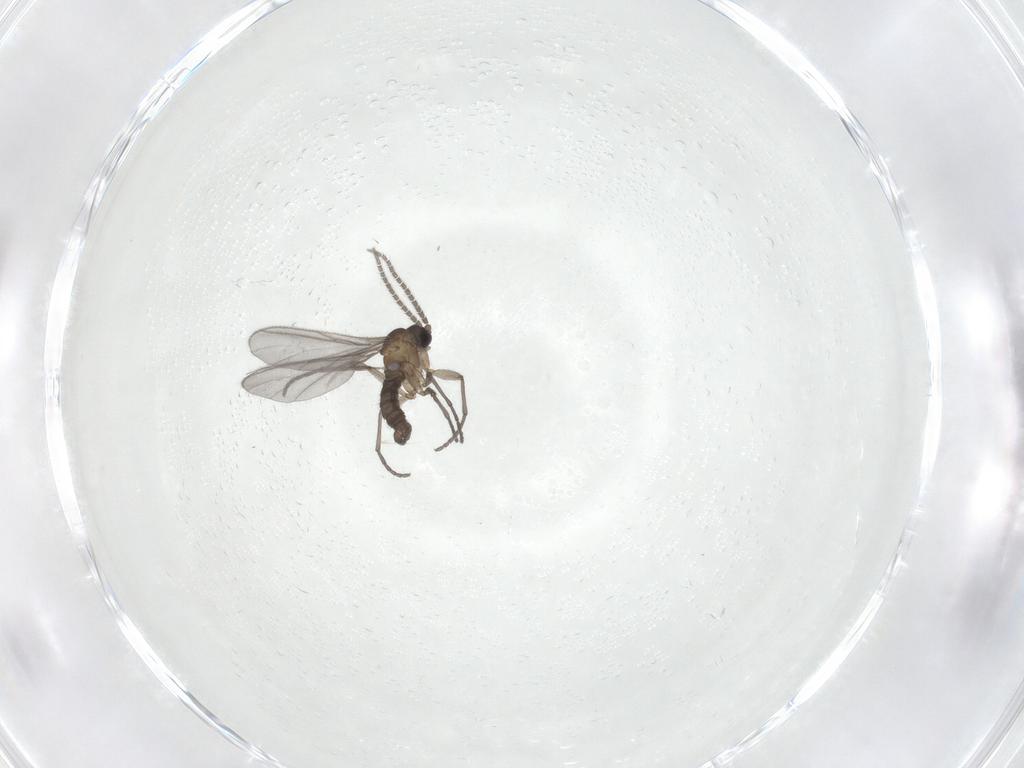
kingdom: Animalia
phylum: Arthropoda
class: Insecta
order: Diptera
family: Sciaridae
